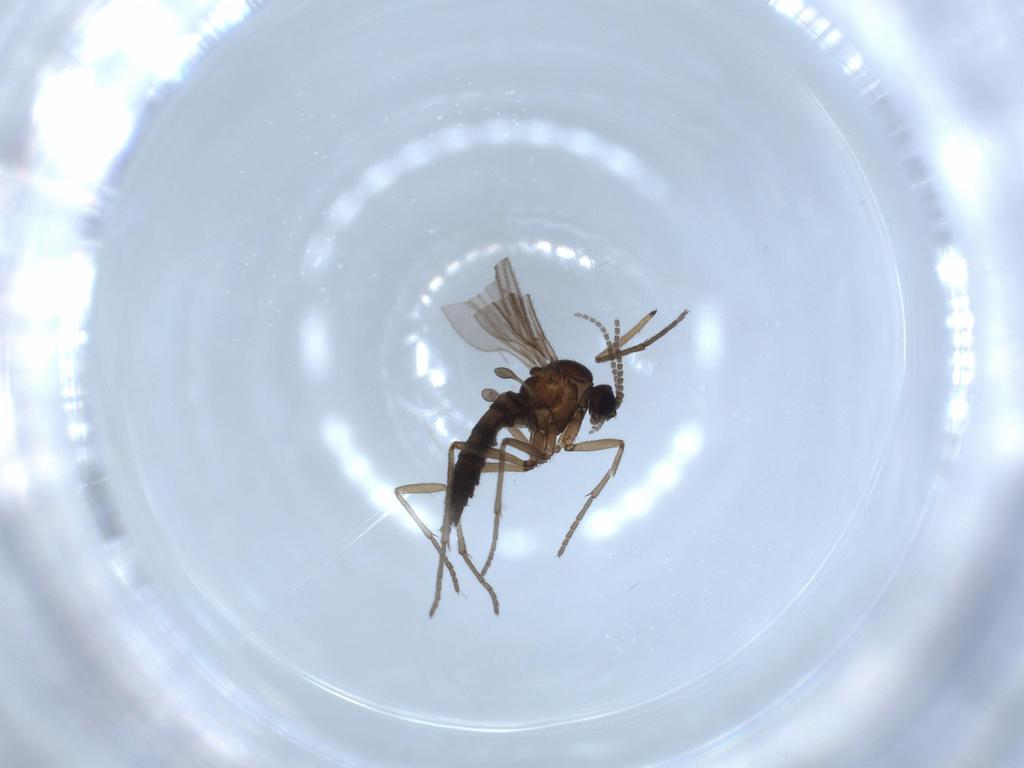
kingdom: Animalia
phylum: Arthropoda
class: Insecta
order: Diptera
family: Sciaridae
